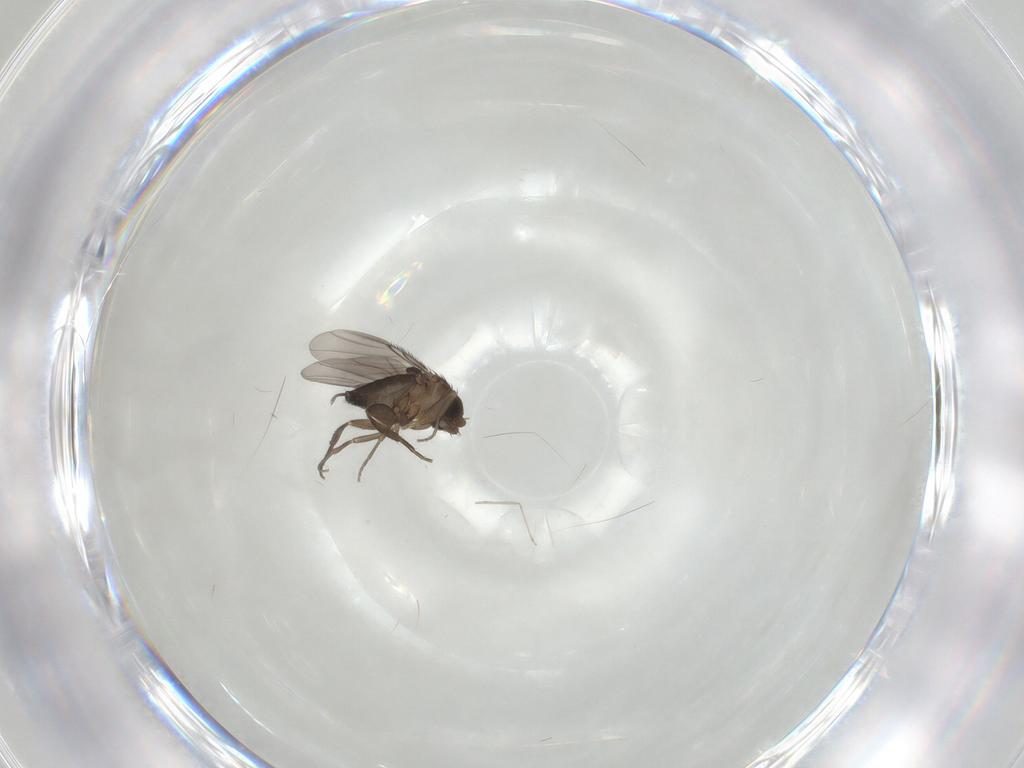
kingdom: Animalia
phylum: Arthropoda
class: Insecta
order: Diptera
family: Phoridae
